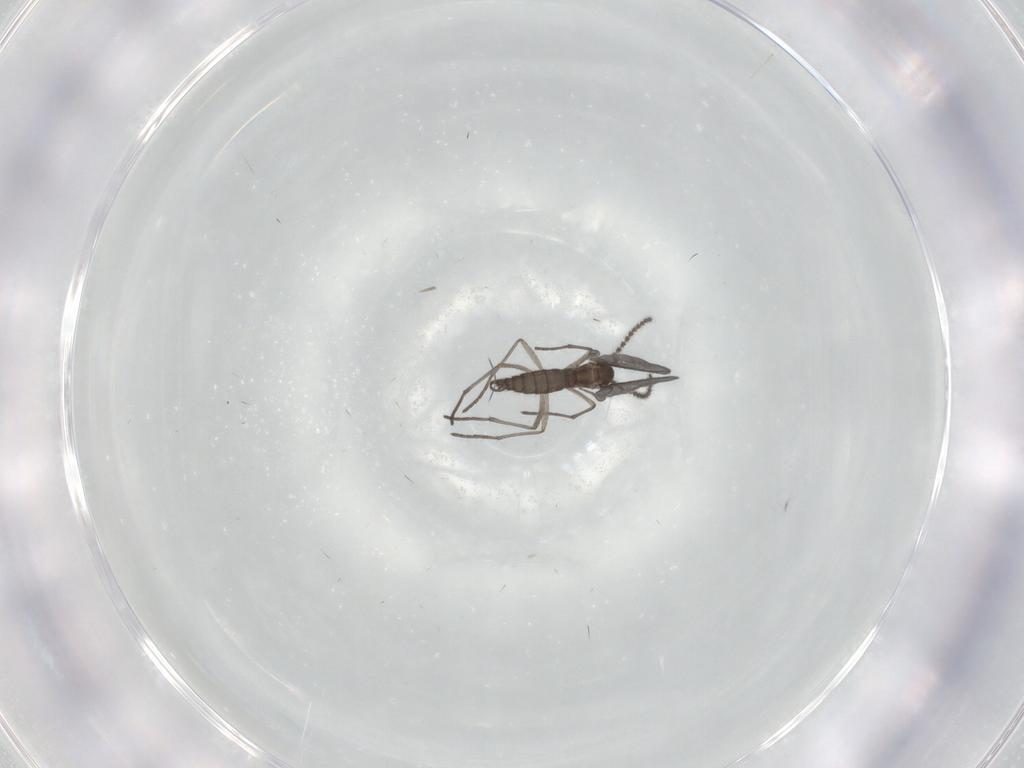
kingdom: Animalia
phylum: Arthropoda
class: Insecta
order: Diptera
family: Sciaridae
